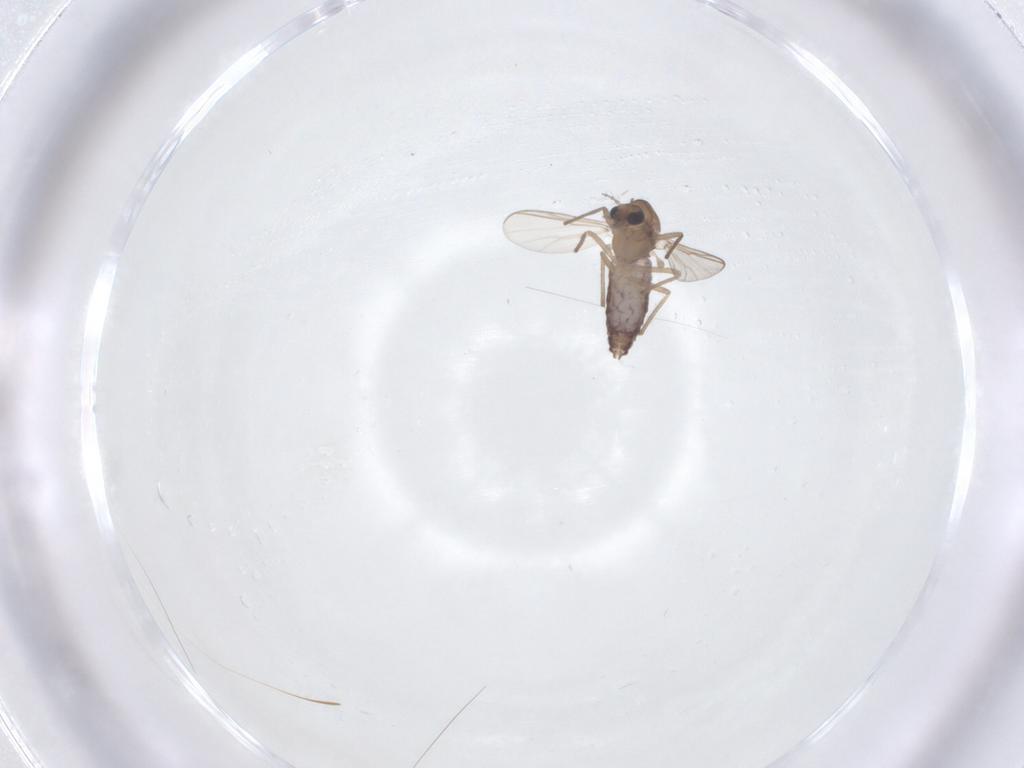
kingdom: Animalia
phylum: Arthropoda
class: Insecta
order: Diptera
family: Chironomidae
